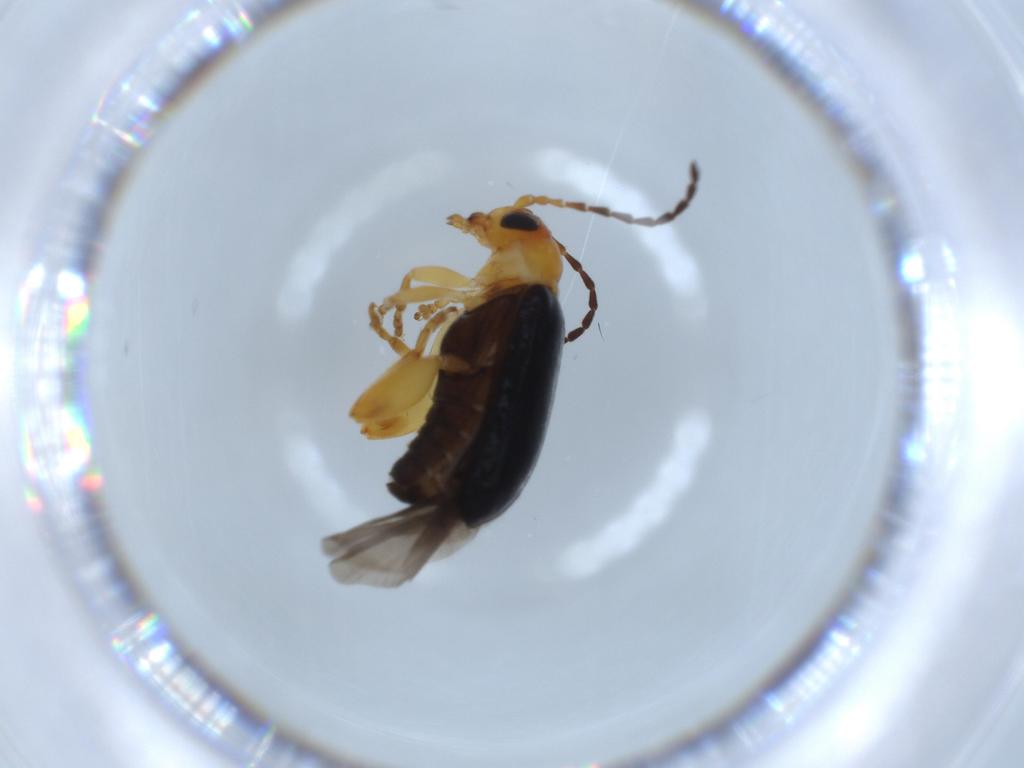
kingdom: Animalia
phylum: Arthropoda
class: Insecta
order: Coleoptera
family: Chrysomelidae
